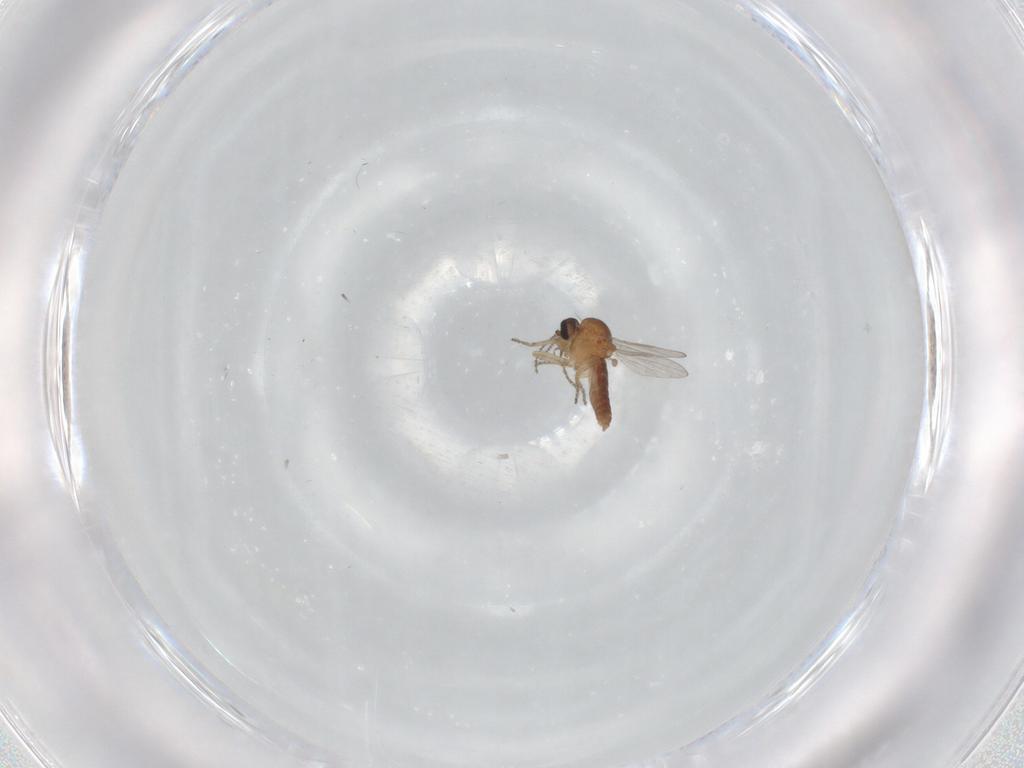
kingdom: Animalia
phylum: Arthropoda
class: Insecta
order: Diptera
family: Ceratopogonidae
